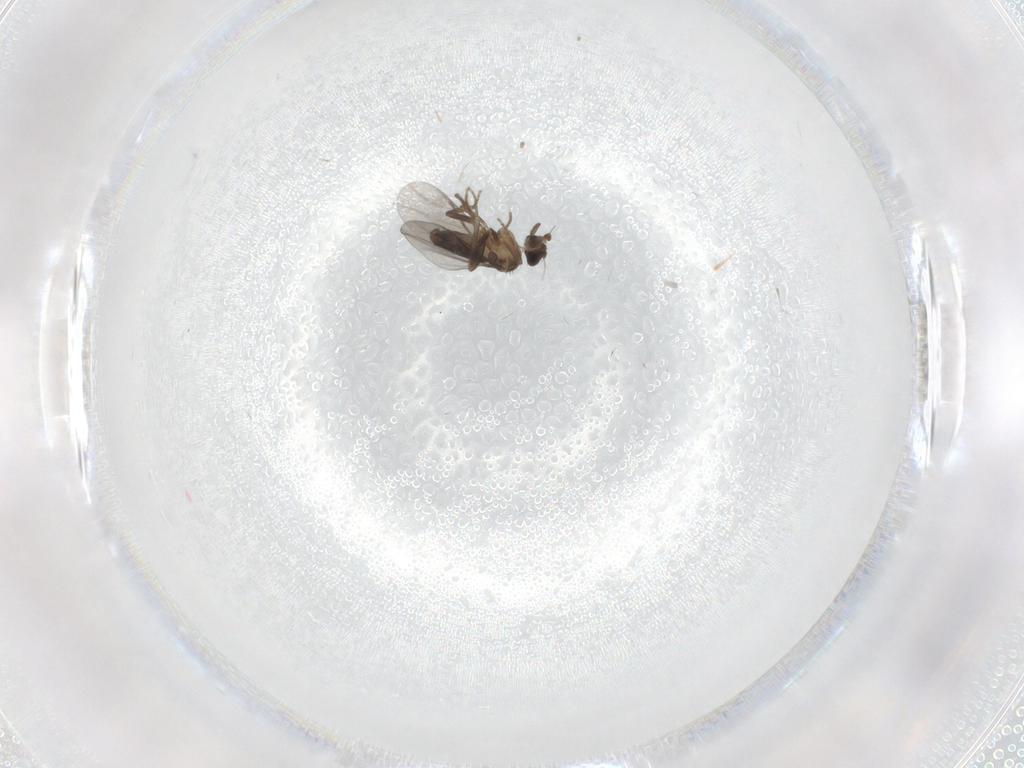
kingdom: Animalia
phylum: Arthropoda
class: Insecta
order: Diptera
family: Cecidomyiidae
